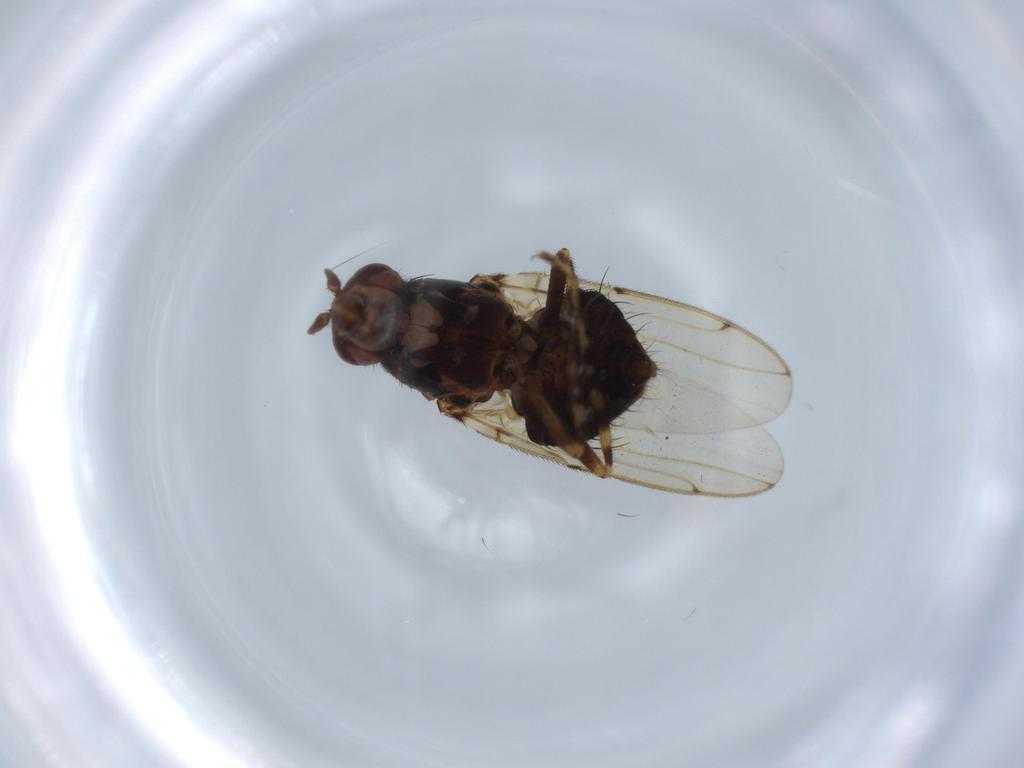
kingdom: Animalia
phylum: Arthropoda
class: Insecta
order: Diptera
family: Sphaeroceridae
